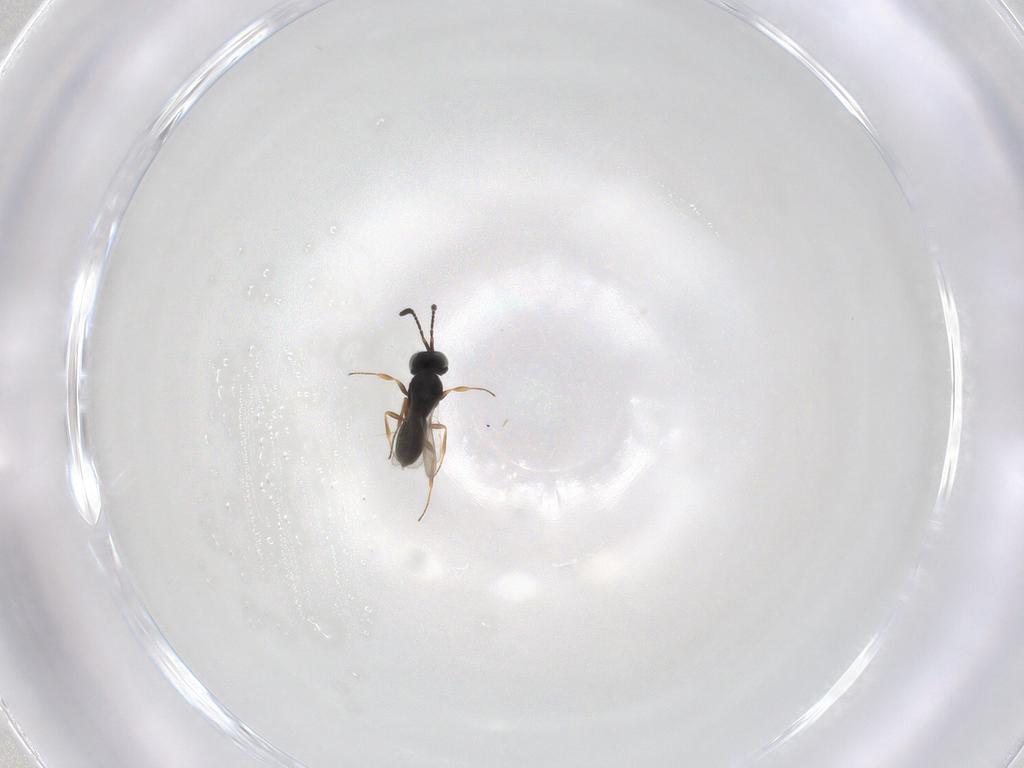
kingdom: Animalia
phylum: Arthropoda
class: Insecta
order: Hymenoptera
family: Scelionidae
